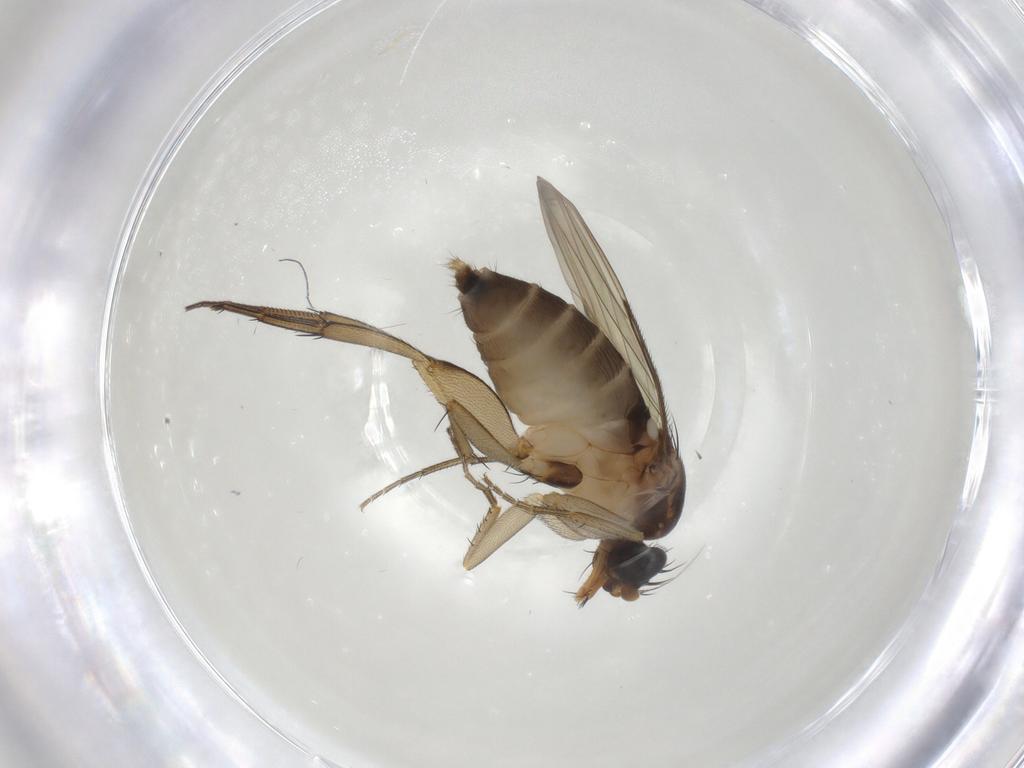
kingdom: Animalia
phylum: Arthropoda
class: Insecta
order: Diptera
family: Phoridae
